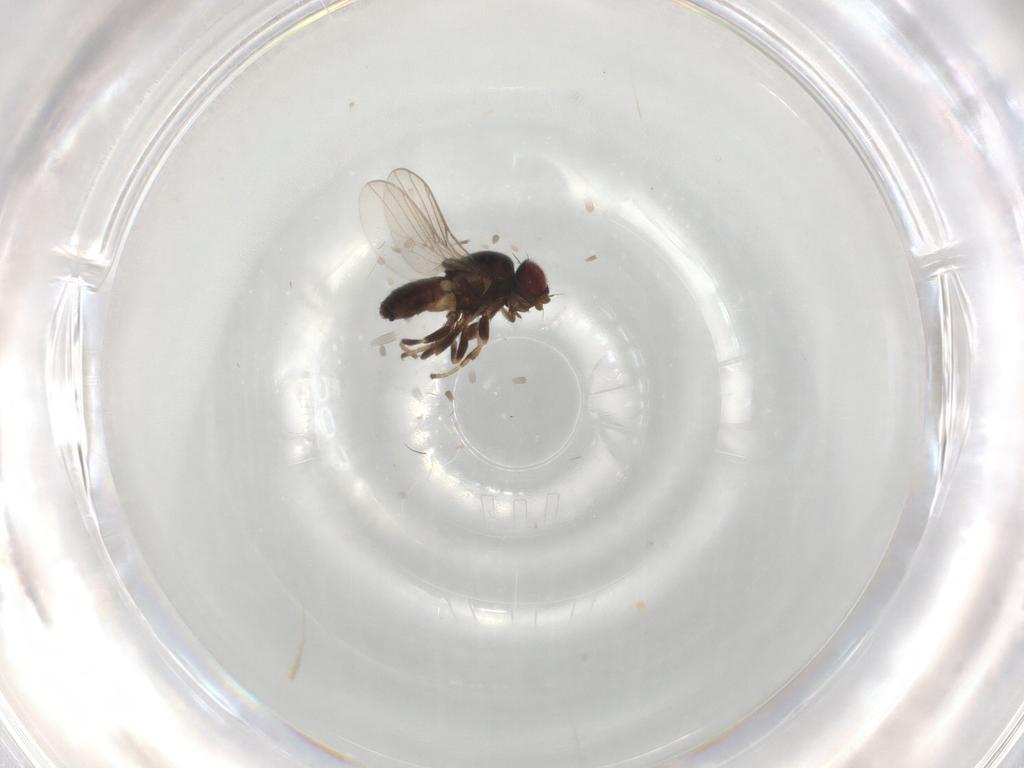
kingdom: Animalia
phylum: Arthropoda
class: Insecta
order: Diptera
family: Chloropidae
